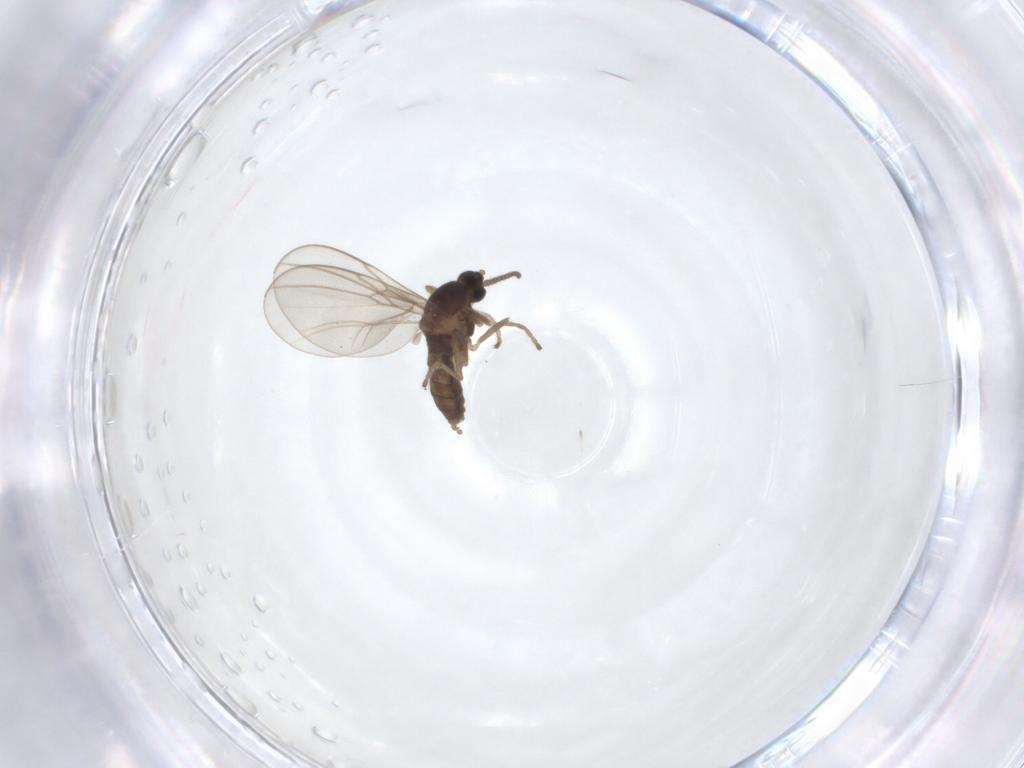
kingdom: Animalia
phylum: Arthropoda
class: Insecta
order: Diptera
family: Cecidomyiidae
